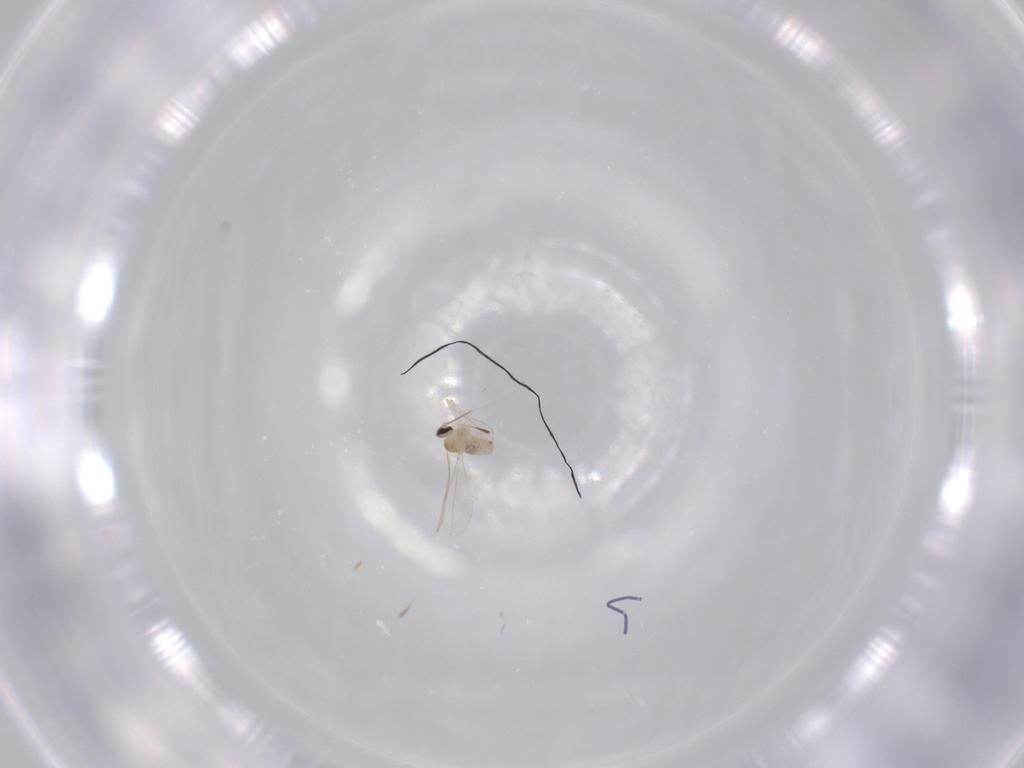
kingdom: Animalia
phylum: Arthropoda
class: Insecta
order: Diptera
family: Cecidomyiidae
